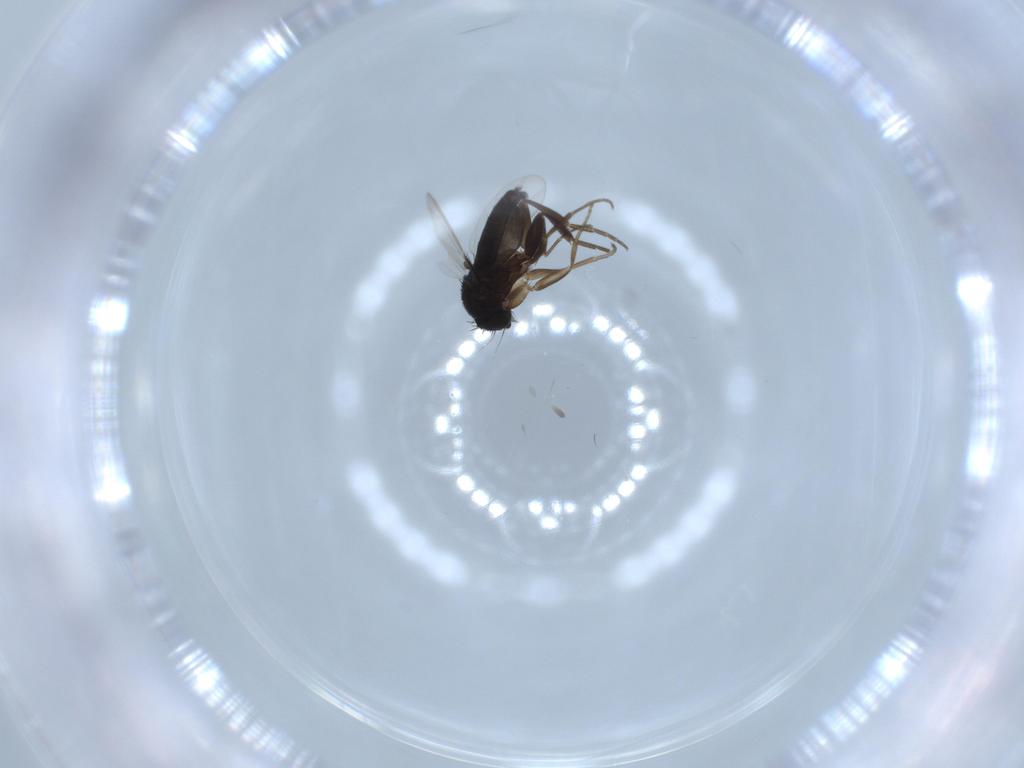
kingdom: Animalia
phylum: Arthropoda
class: Insecta
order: Diptera
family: Phoridae
